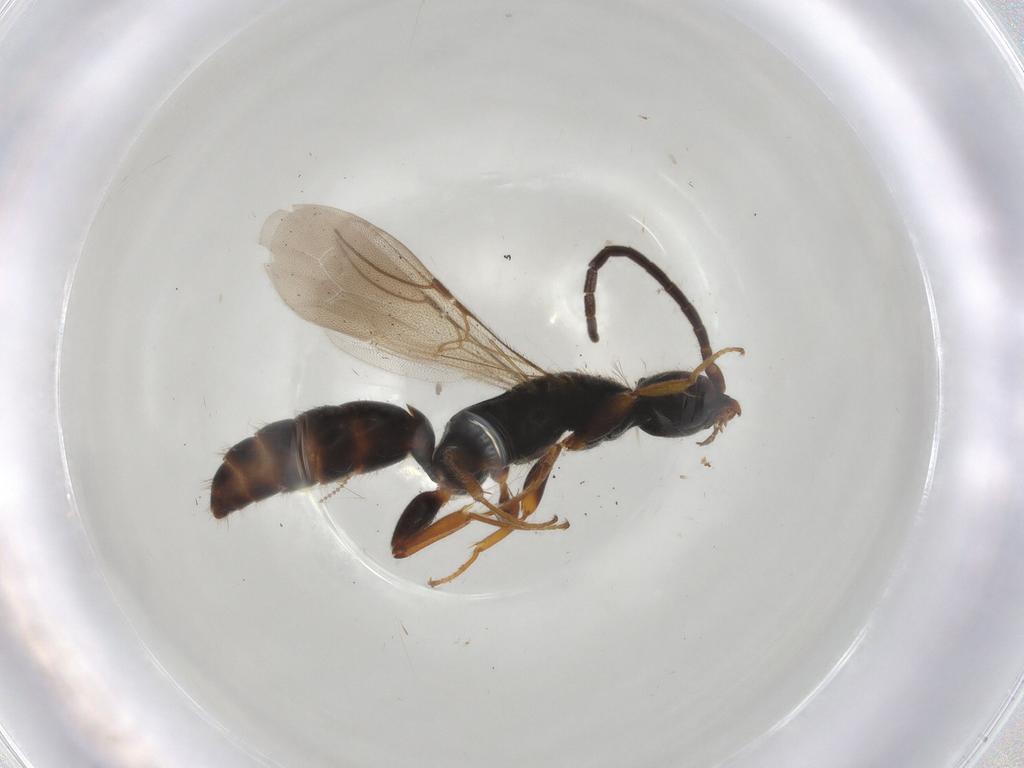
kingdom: Animalia
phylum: Arthropoda
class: Insecta
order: Hymenoptera
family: Bethylidae
